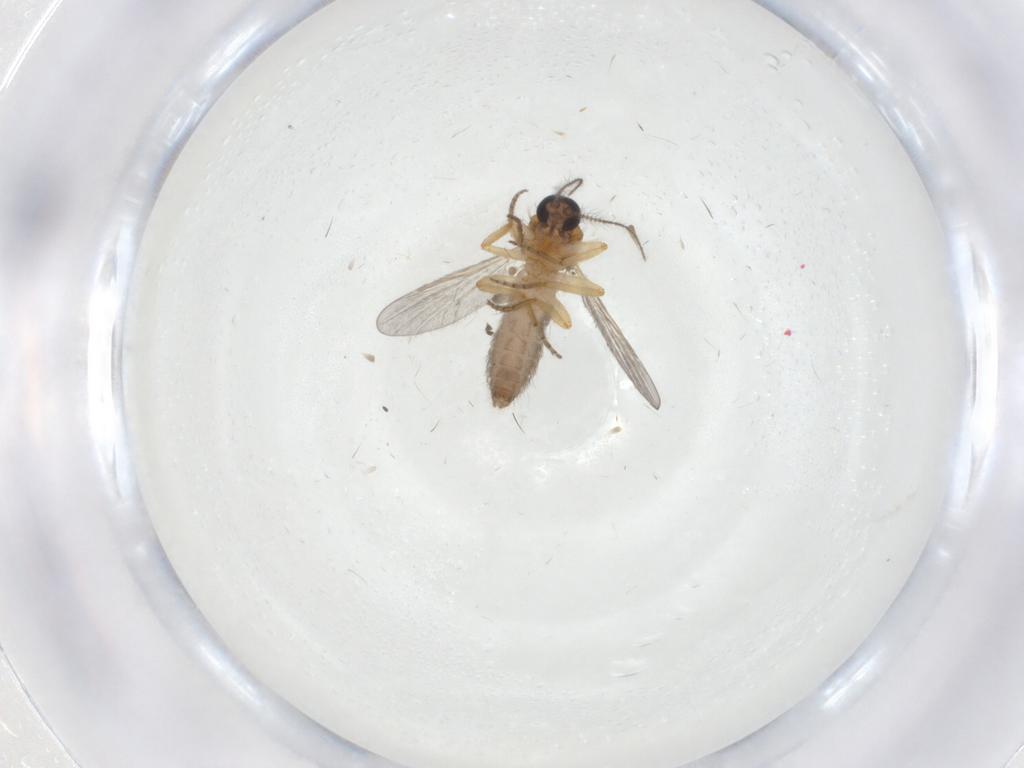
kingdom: Animalia
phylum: Arthropoda
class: Insecta
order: Diptera
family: Ceratopogonidae
